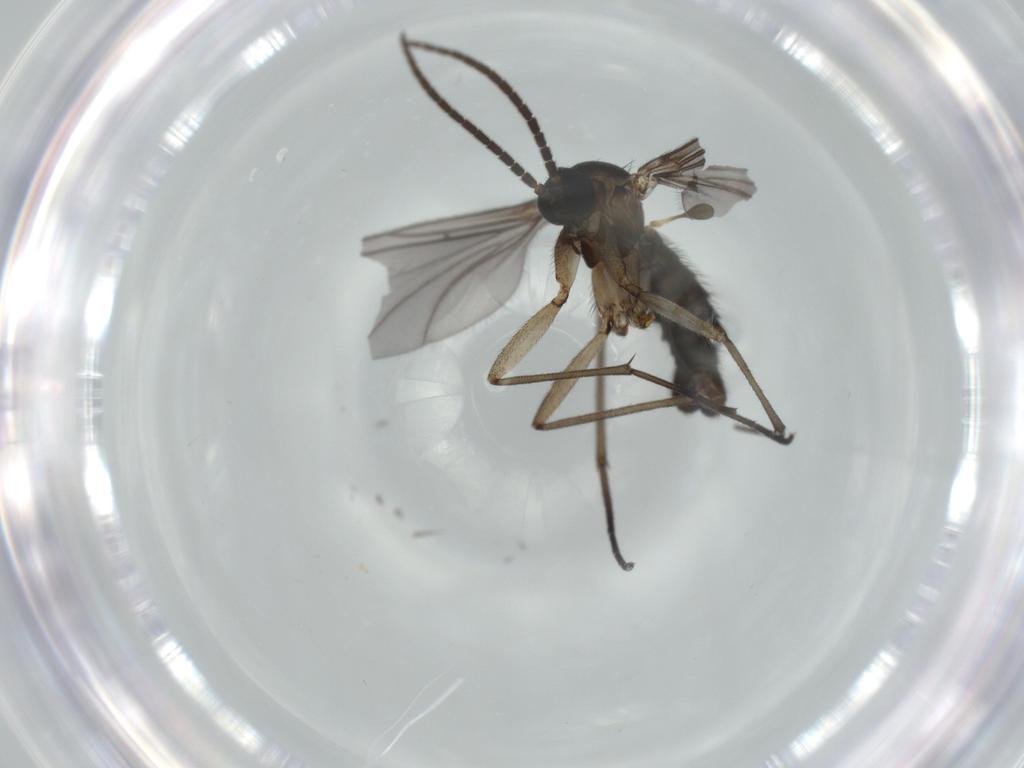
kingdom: Animalia
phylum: Arthropoda
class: Insecta
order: Diptera
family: Sciaridae
